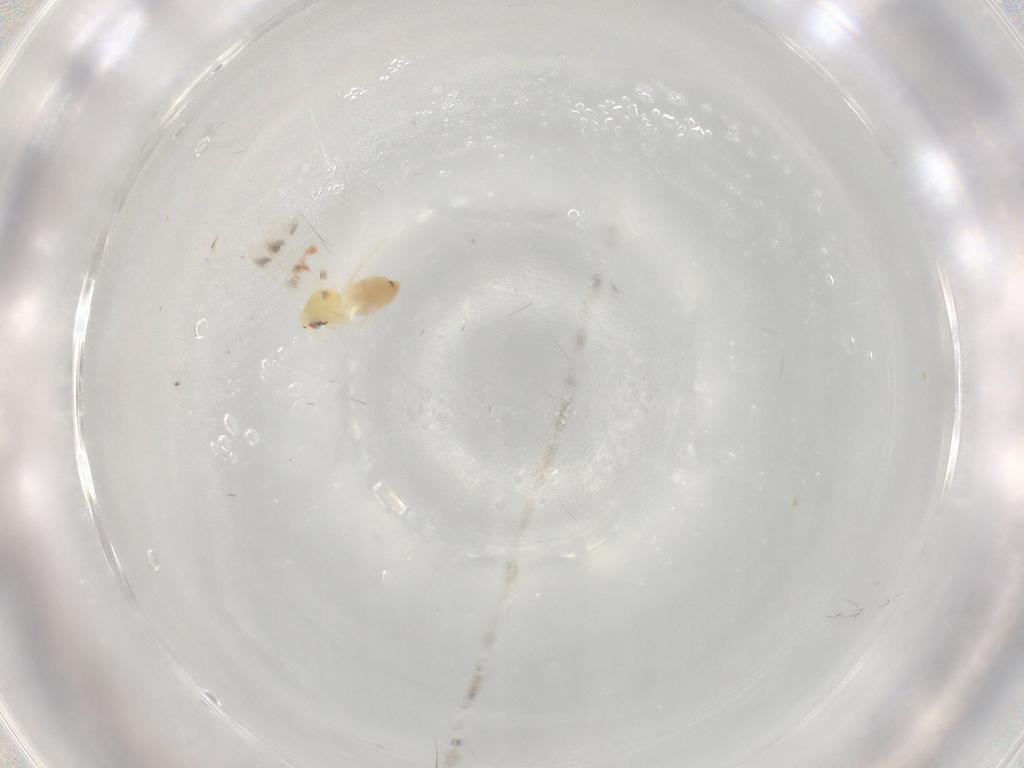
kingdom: Animalia
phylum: Arthropoda
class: Insecta
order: Hemiptera
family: Aleyrodidae
